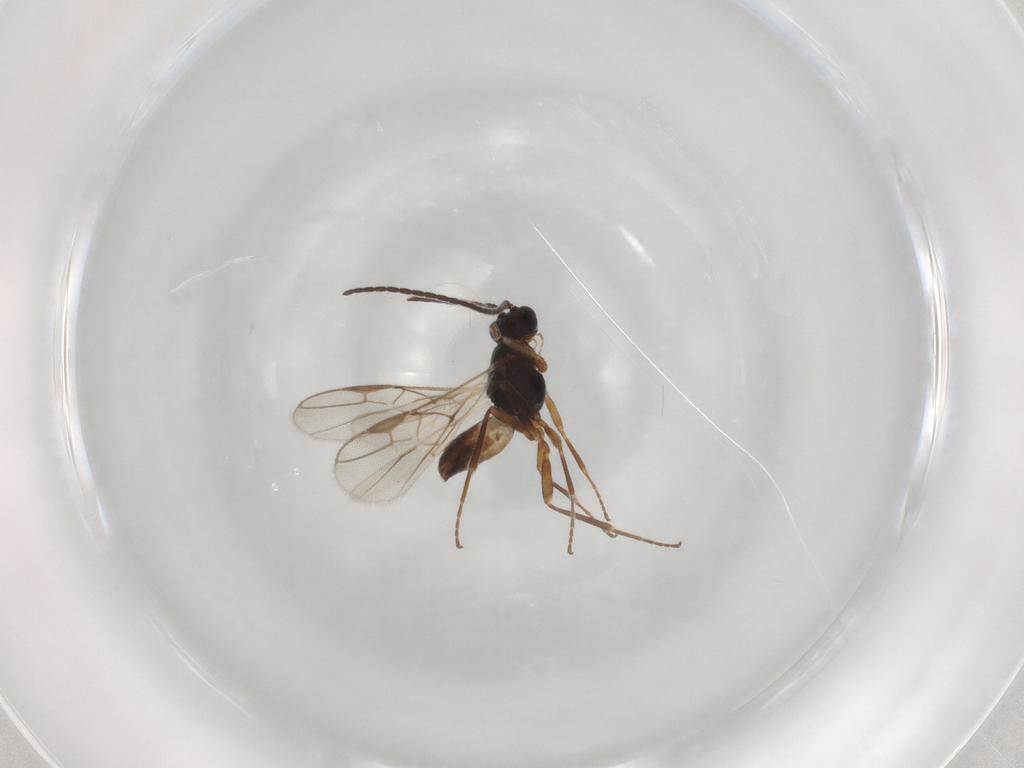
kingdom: Animalia
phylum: Arthropoda
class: Insecta
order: Hymenoptera
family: Braconidae
